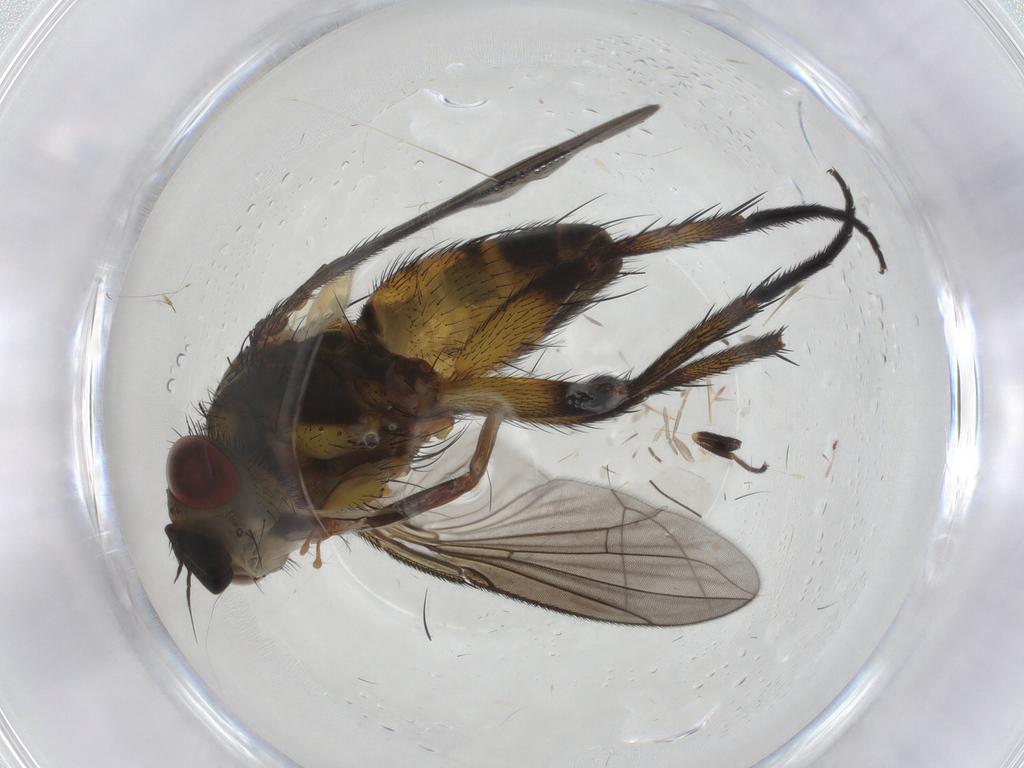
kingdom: Animalia
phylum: Arthropoda
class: Insecta
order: Diptera
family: Tachinidae
